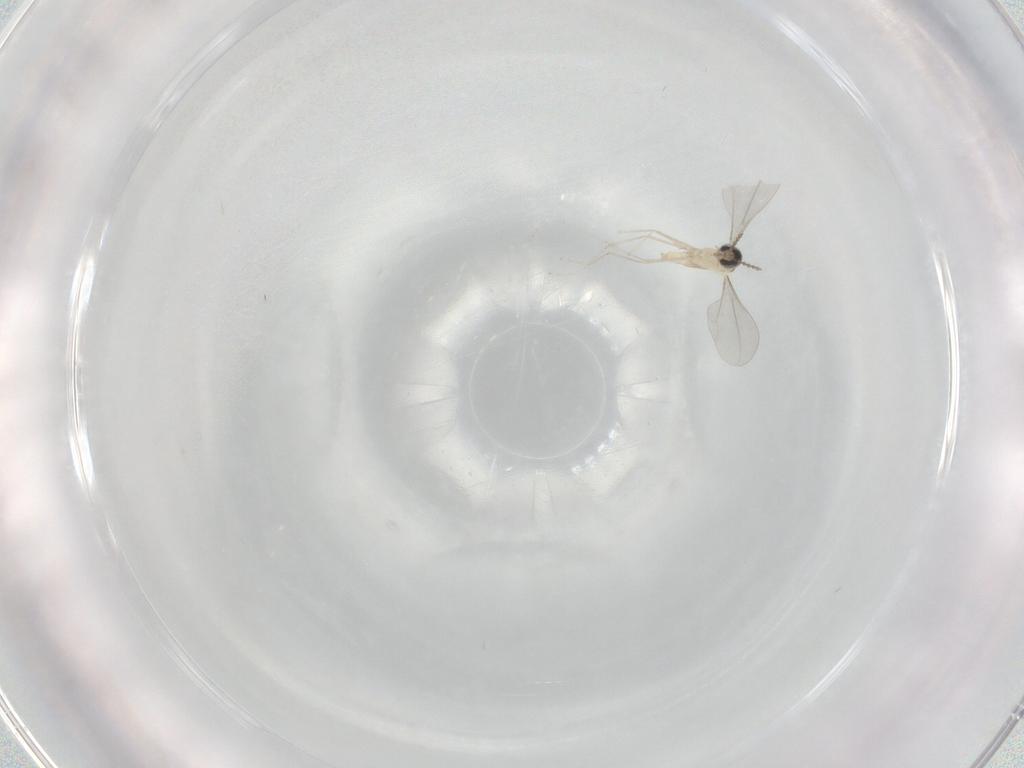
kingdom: Animalia
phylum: Arthropoda
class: Insecta
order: Diptera
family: Cecidomyiidae
